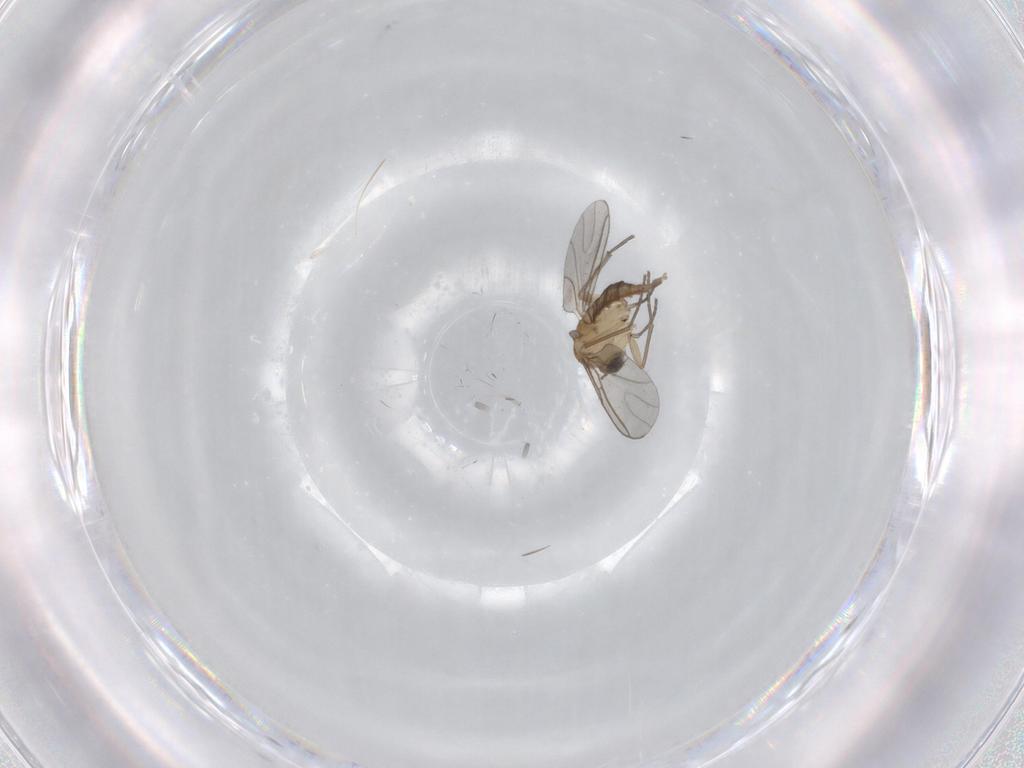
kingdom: Animalia
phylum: Arthropoda
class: Insecta
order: Diptera
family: Sciaridae
